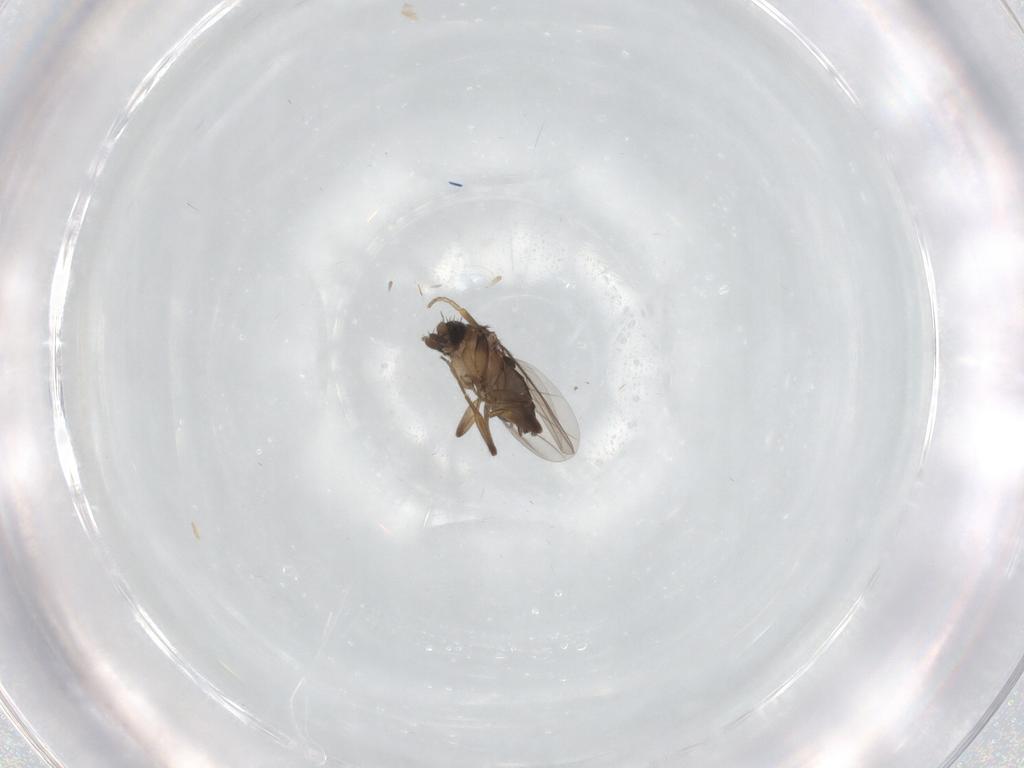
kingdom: Animalia
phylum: Arthropoda
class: Insecta
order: Diptera
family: Phoridae
